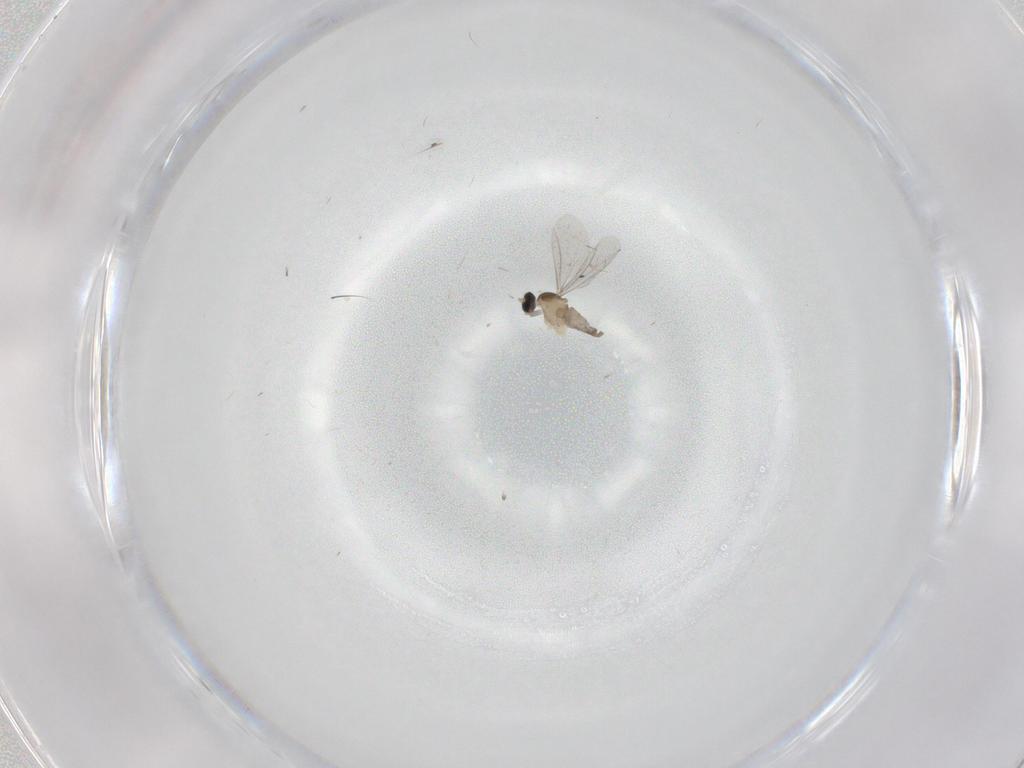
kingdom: Animalia
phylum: Arthropoda
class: Insecta
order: Diptera
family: Cecidomyiidae
